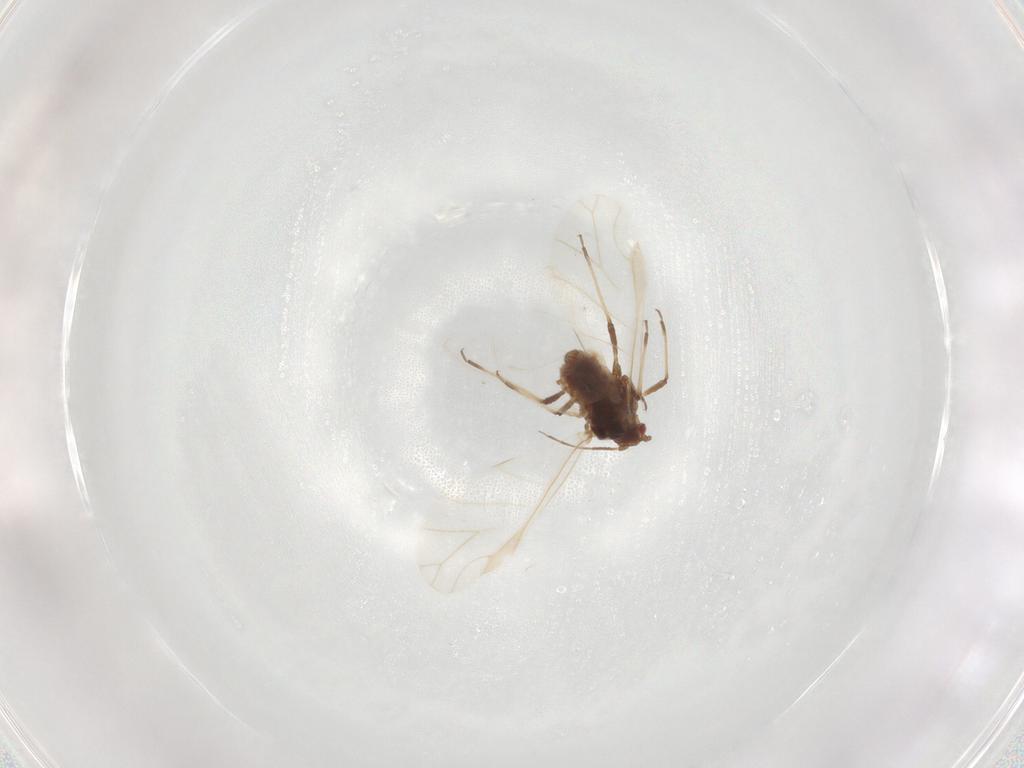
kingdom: Animalia
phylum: Arthropoda
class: Insecta
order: Hemiptera
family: Aphididae
